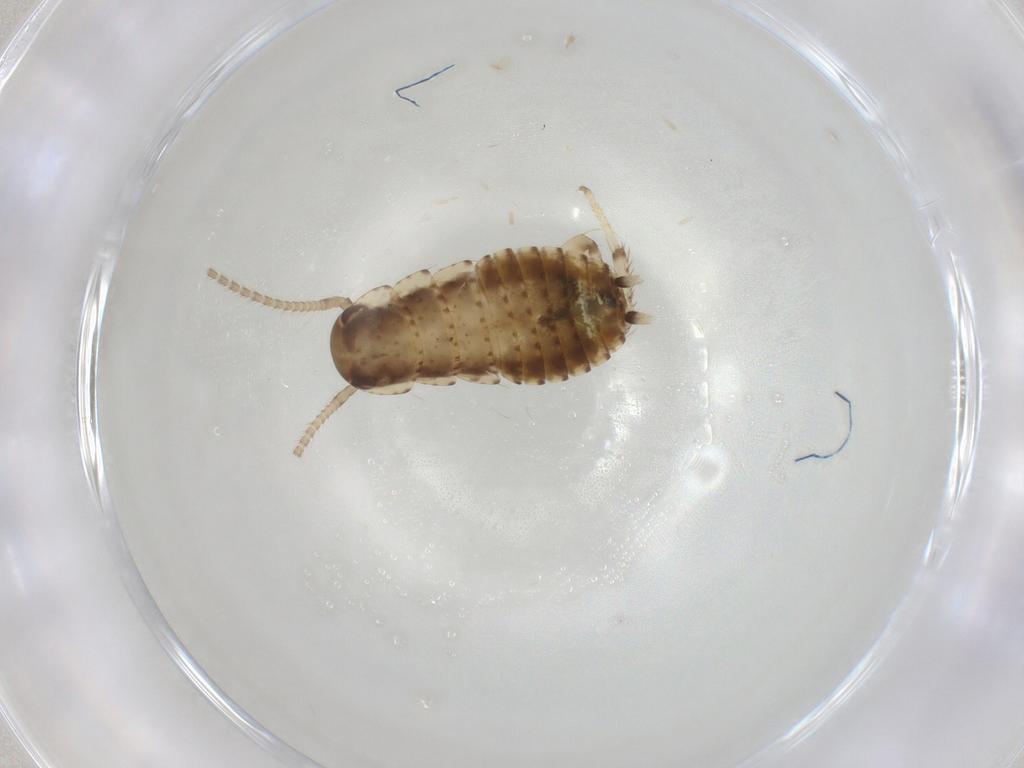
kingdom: Animalia
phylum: Arthropoda
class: Insecta
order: Blattodea
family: Blaberidae
